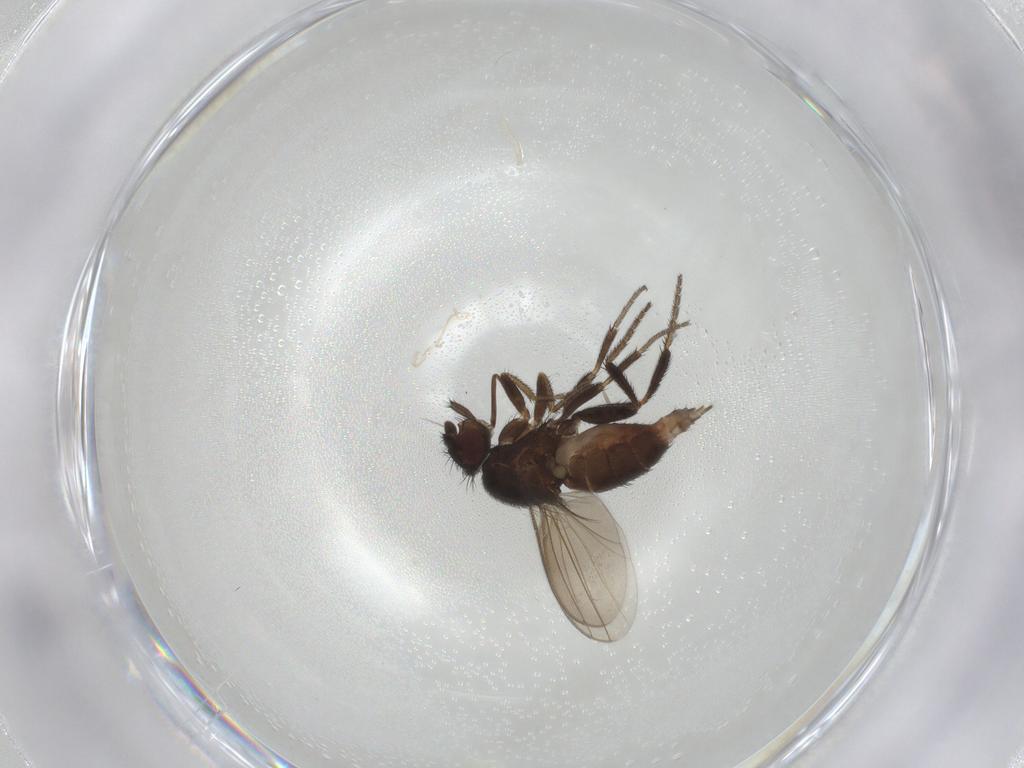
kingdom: Animalia
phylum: Arthropoda
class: Insecta
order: Diptera
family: Milichiidae
